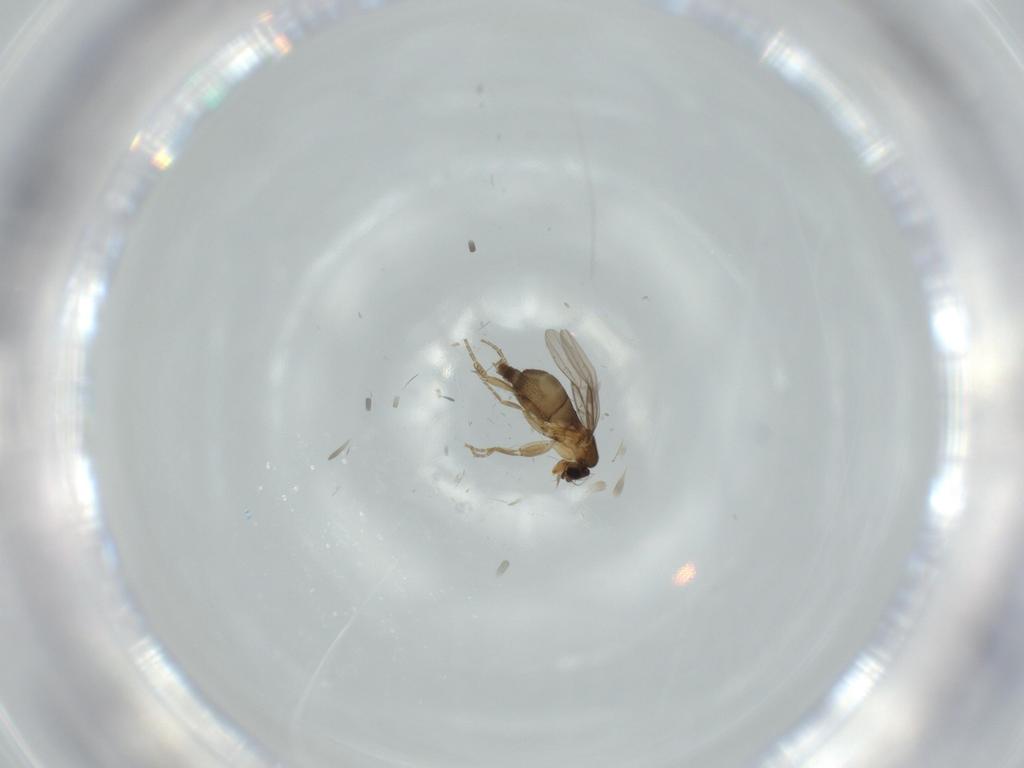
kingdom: Animalia
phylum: Arthropoda
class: Insecta
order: Diptera
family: Phoridae
